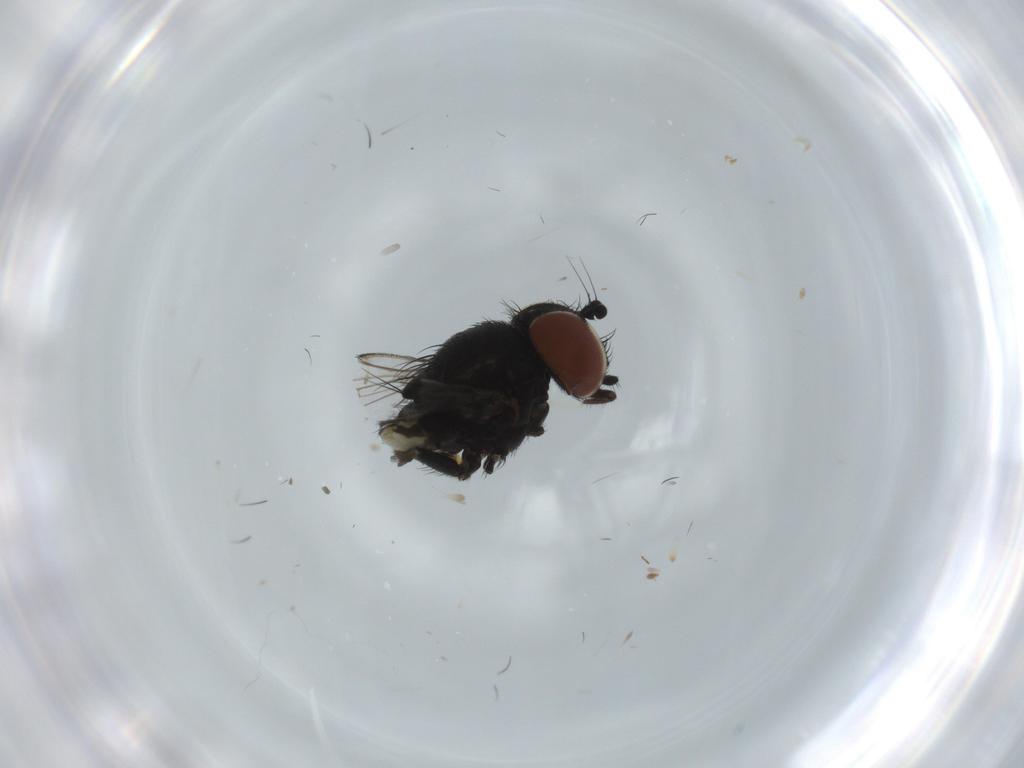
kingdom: Animalia
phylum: Arthropoda
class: Insecta
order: Diptera
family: Milichiidae
